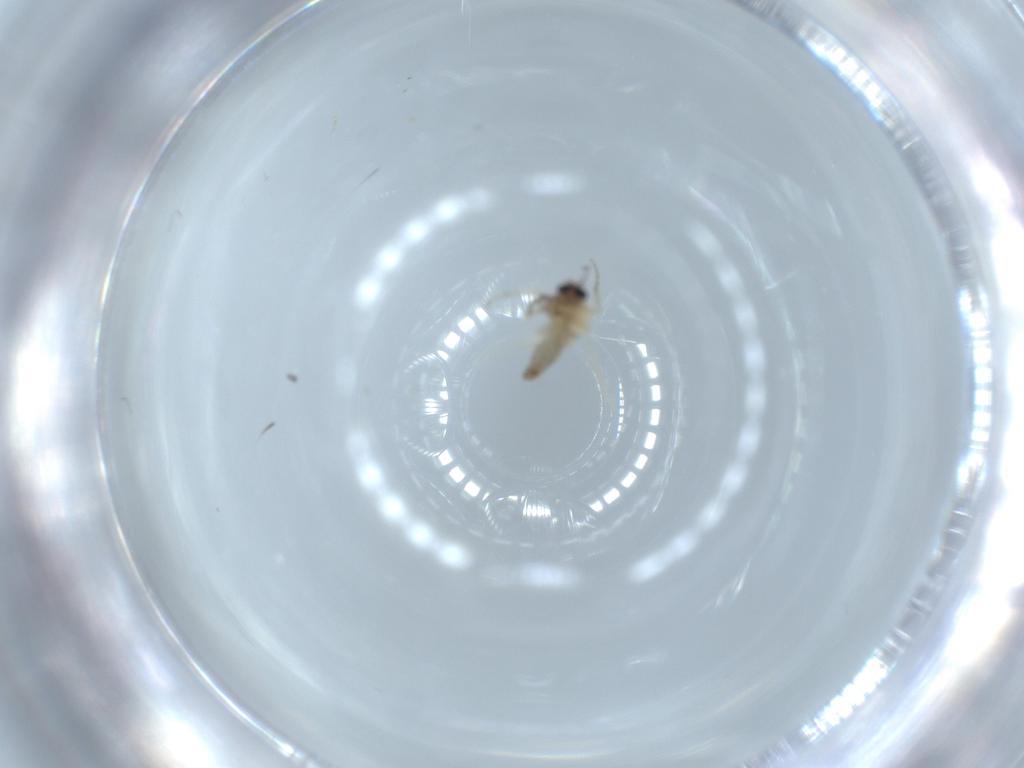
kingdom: Animalia
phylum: Arthropoda
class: Insecta
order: Diptera
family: Ceratopogonidae
